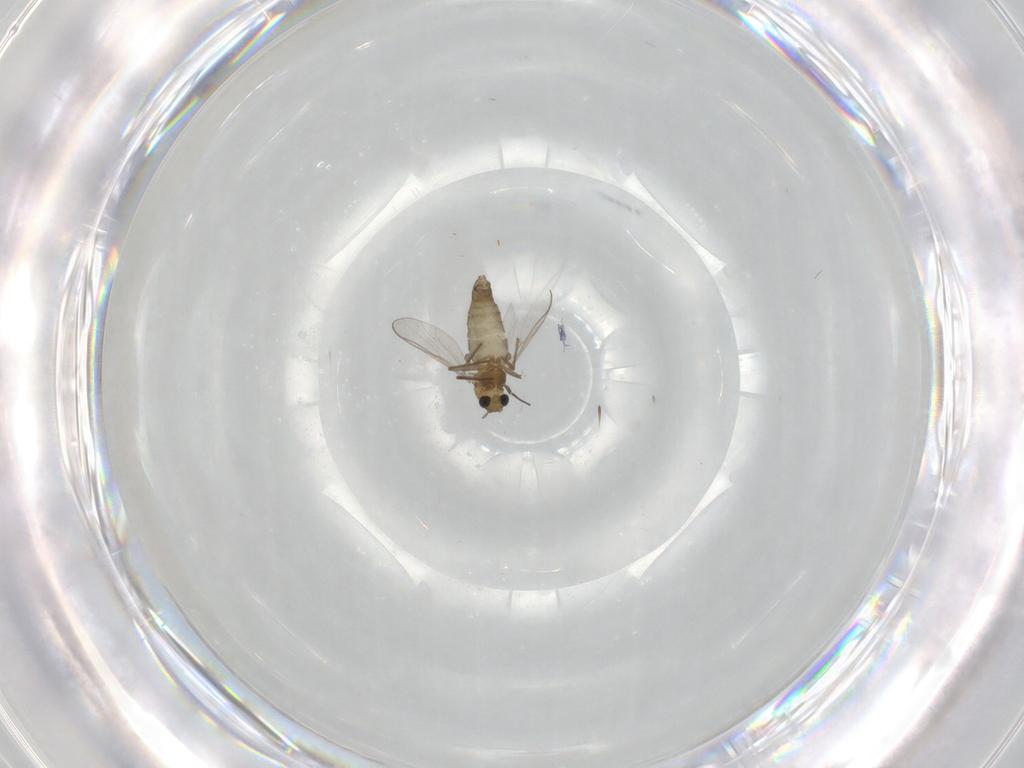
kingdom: Animalia
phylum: Arthropoda
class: Insecta
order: Diptera
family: Chironomidae
